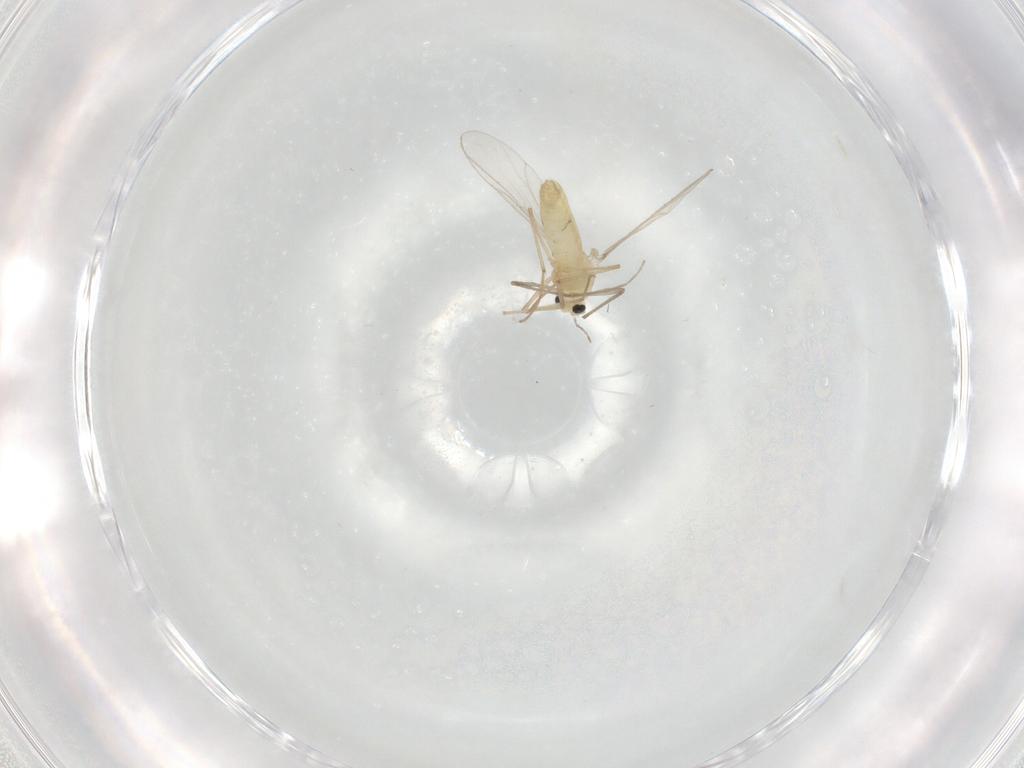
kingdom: Animalia
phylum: Arthropoda
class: Insecta
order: Diptera
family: Chironomidae
